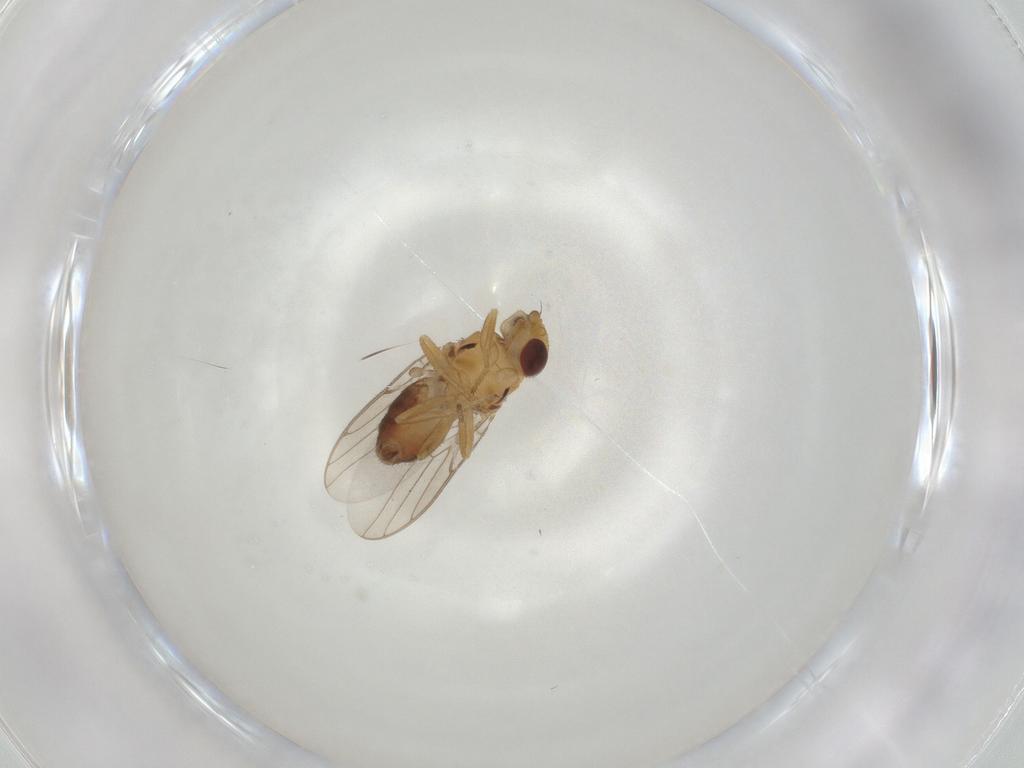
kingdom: Animalia
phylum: Arthropoda
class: Insecta
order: Diptera
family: Chloropidae
